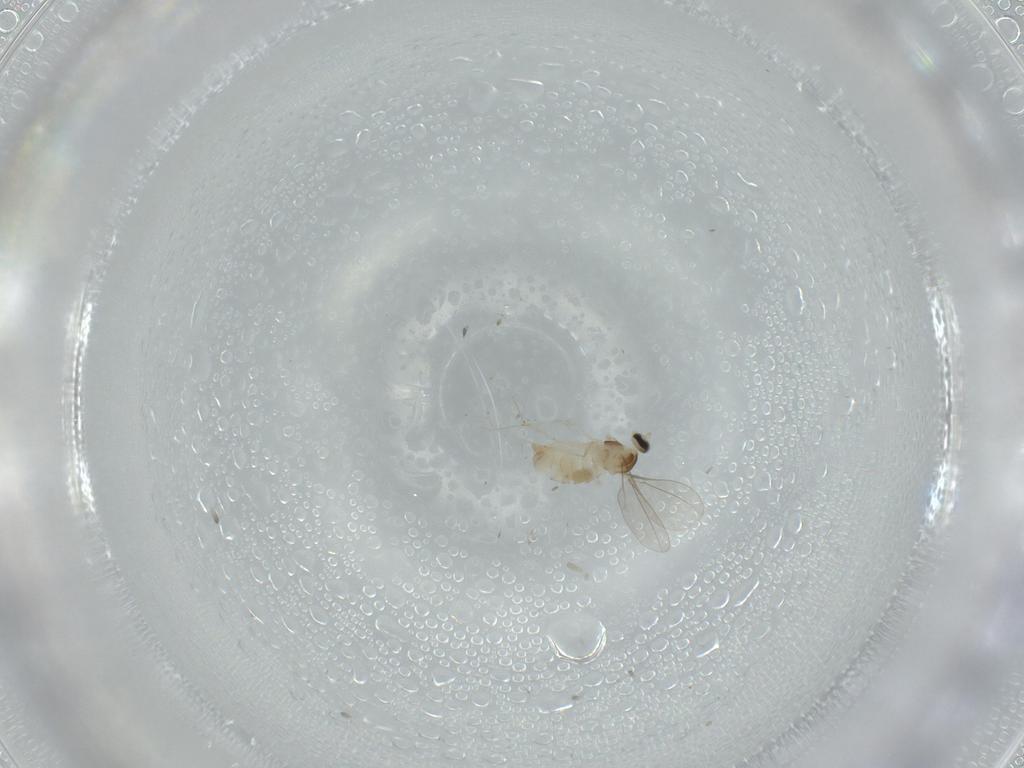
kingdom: Animalia
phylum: Arthropoda
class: Insecta
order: Diptera
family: Cecidomyiidae
